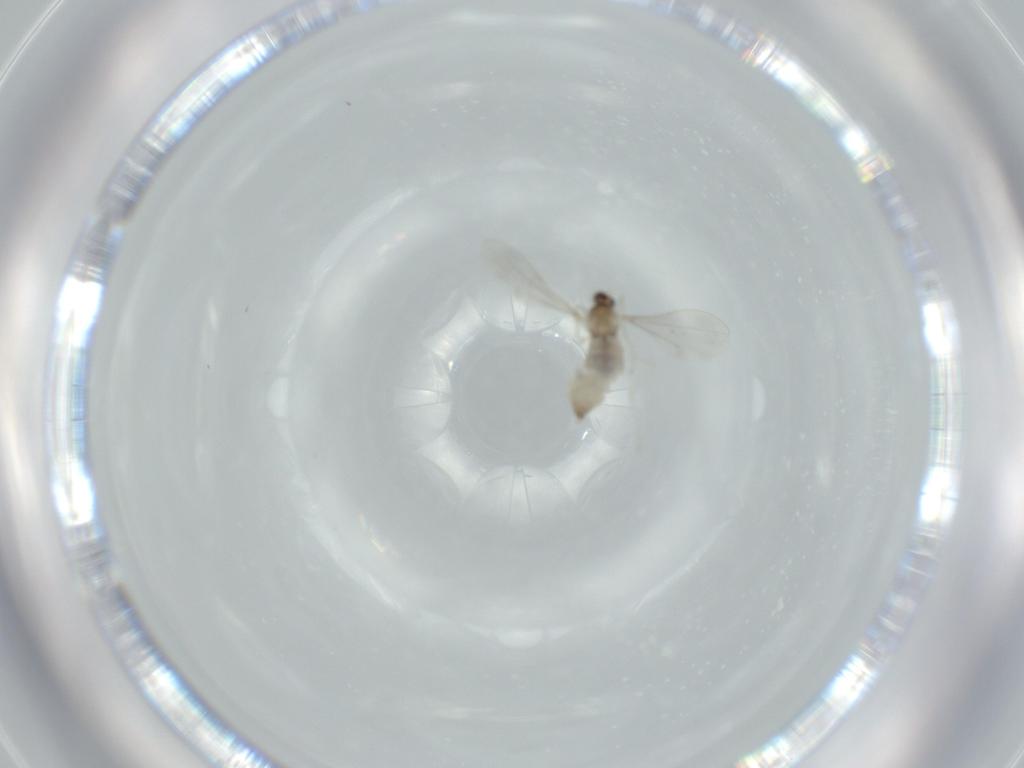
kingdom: Animalia
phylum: Arthropoda
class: Insecta
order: Diptera
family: Cecidomyiidae
